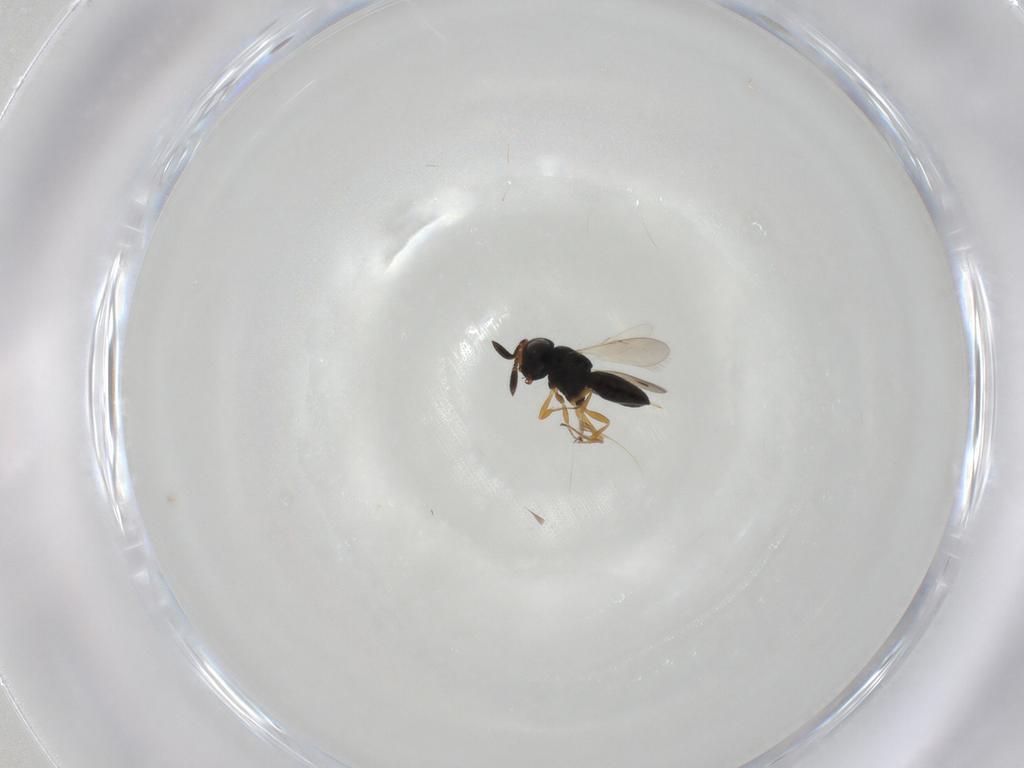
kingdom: Animalia
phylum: Arthropoda
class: Insecta
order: Hymenoptera
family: Scelionidae
